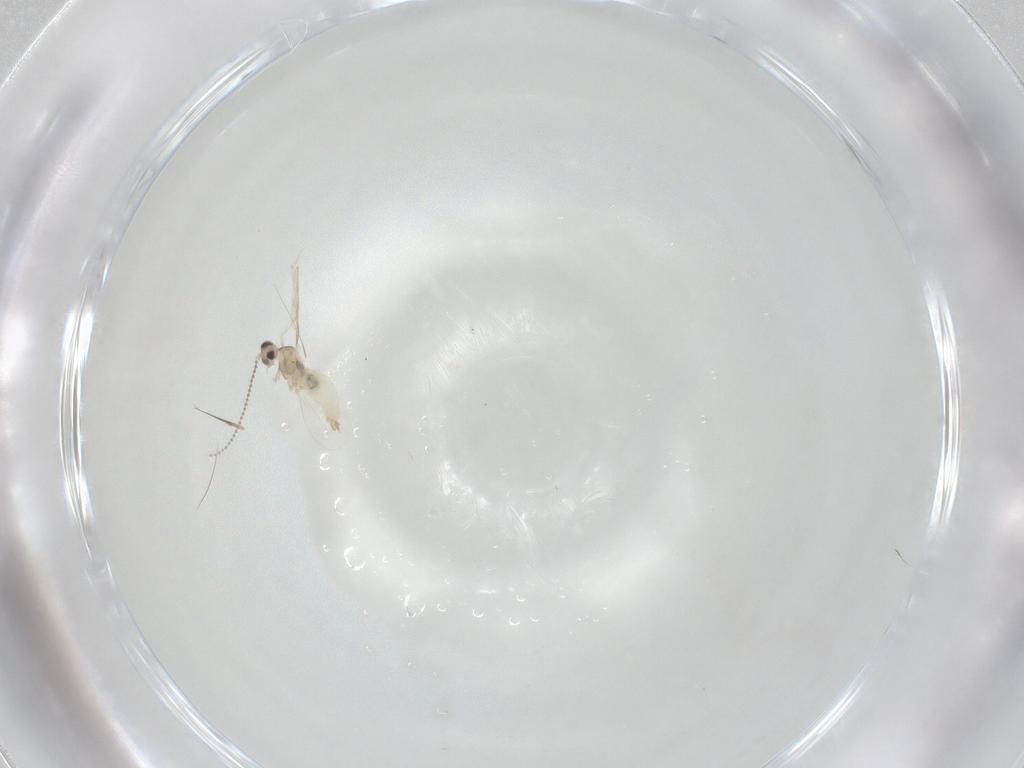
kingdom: Animalia
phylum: Arthropoda
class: Insecta
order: Diptera
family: Cecidomyiidae
